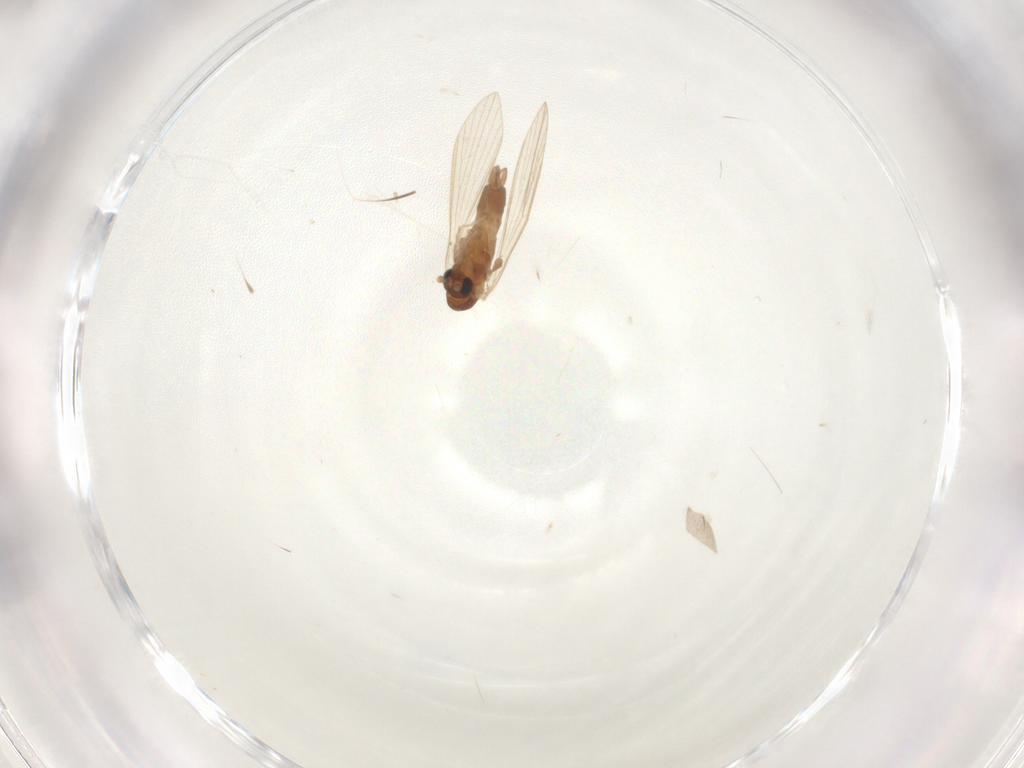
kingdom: Animalia
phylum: Arthropoda
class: Insecta
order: Diptera
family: Psychodidae
